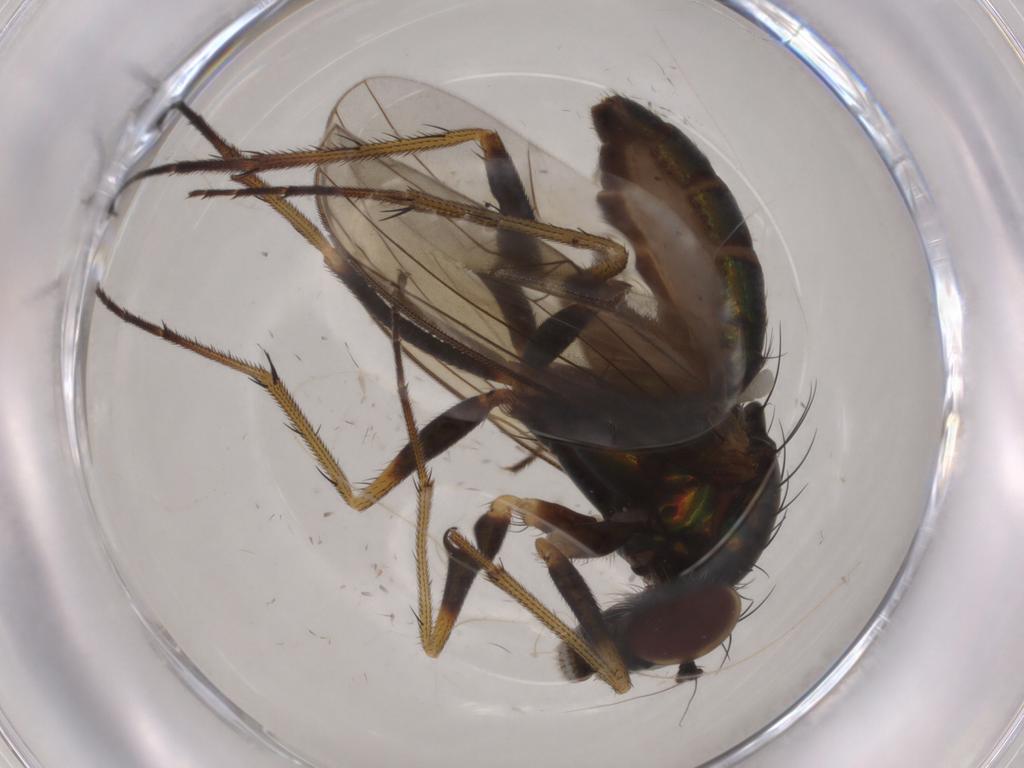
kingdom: Animalia
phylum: Arthropoda
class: Insecta
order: Diptera
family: Dolichopodidae
